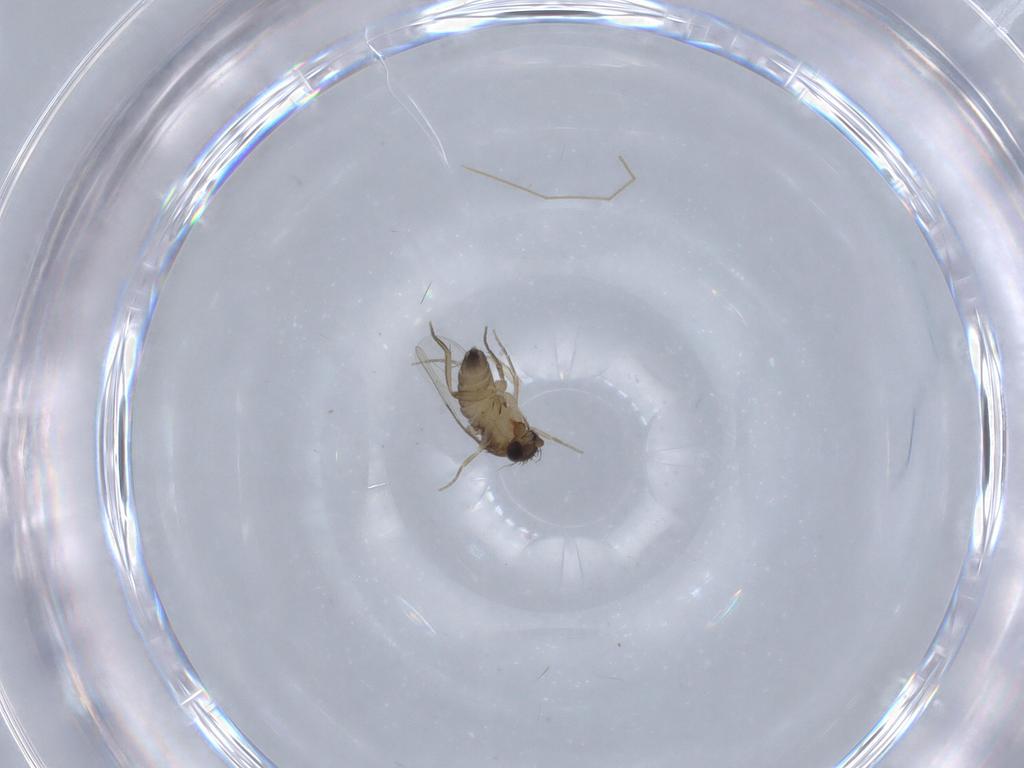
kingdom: Animalia
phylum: Arthropoda
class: Insecta
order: Diptera
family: Phoridae
